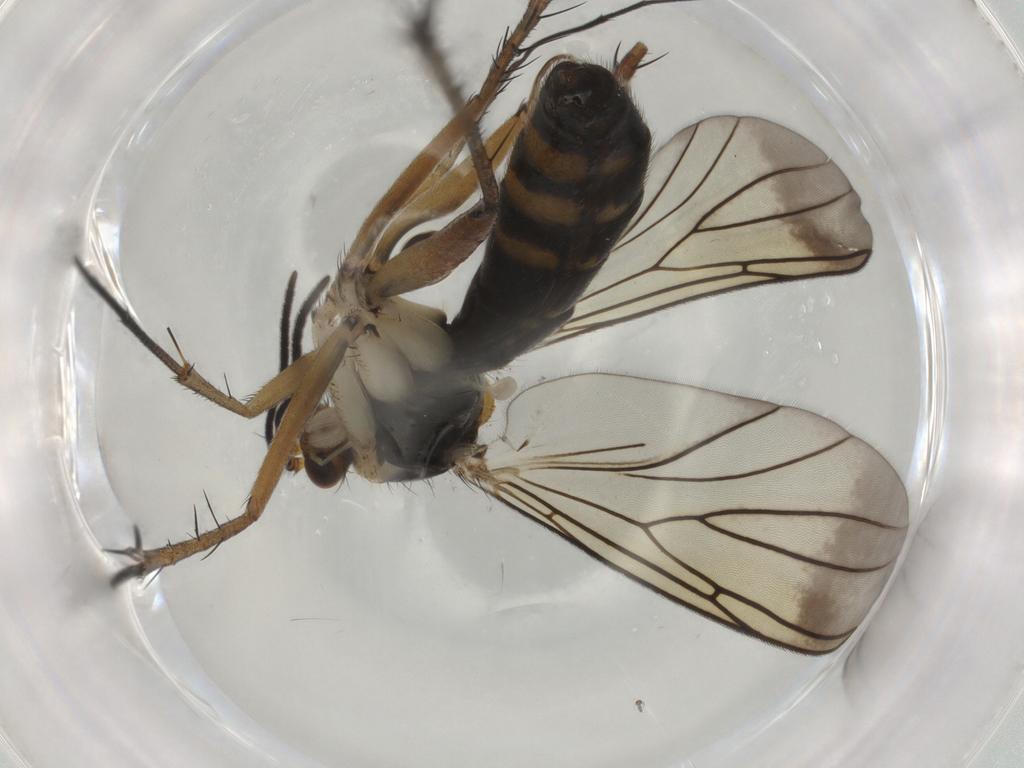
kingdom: Animalia
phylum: Arthropoda
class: Insecta
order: Diptera
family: Mycetophilidae
